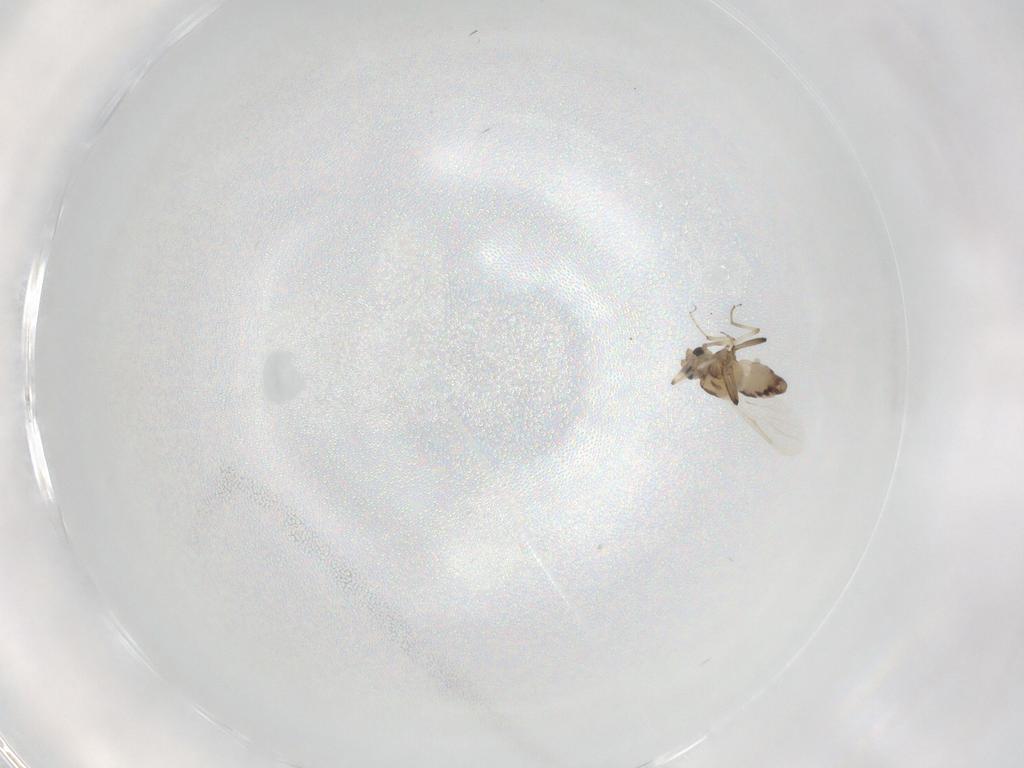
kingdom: Animalia
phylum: Arthropoda
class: Insecta
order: Diptera
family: Ceratopogonidae
